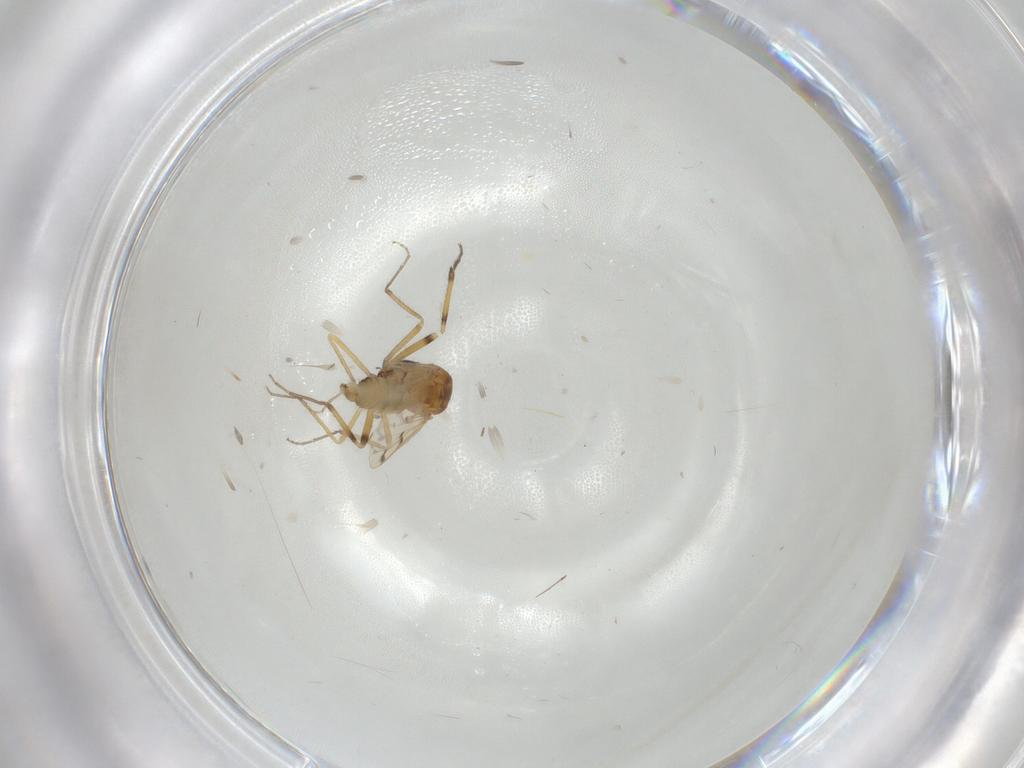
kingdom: Animalia
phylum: Arthropoda
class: Insecta
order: Diptera
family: Ceratopogonidae
